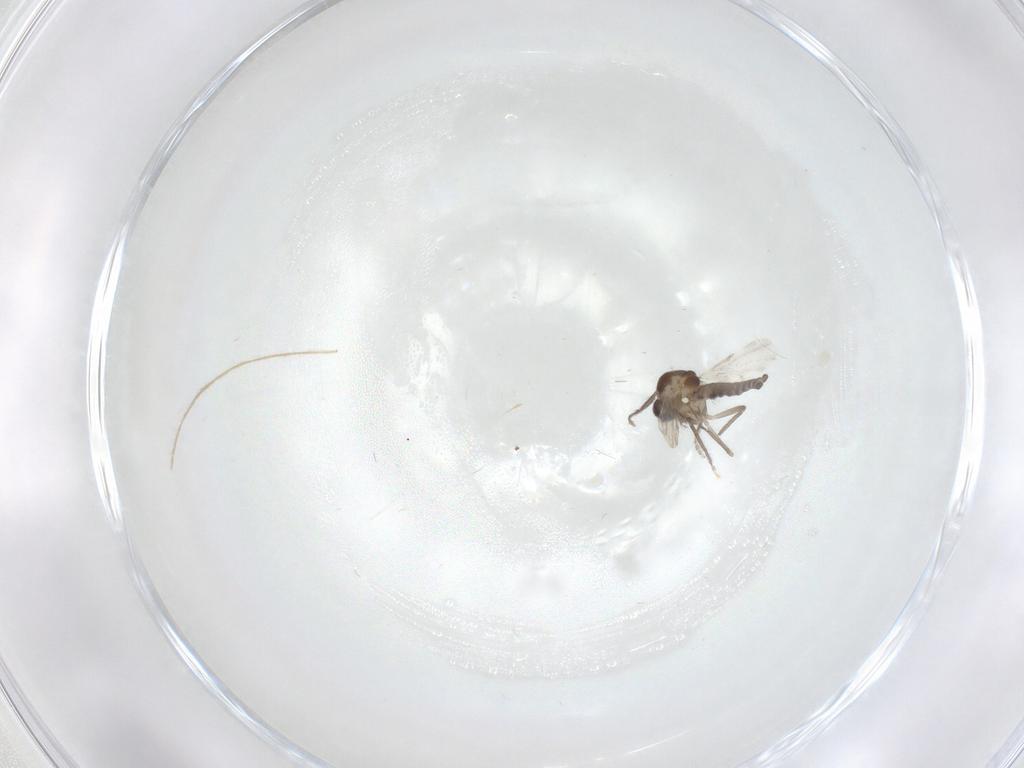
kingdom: Animalia
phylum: Arthropoda
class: Insecta
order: Diptera
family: Ceratopogonidae
